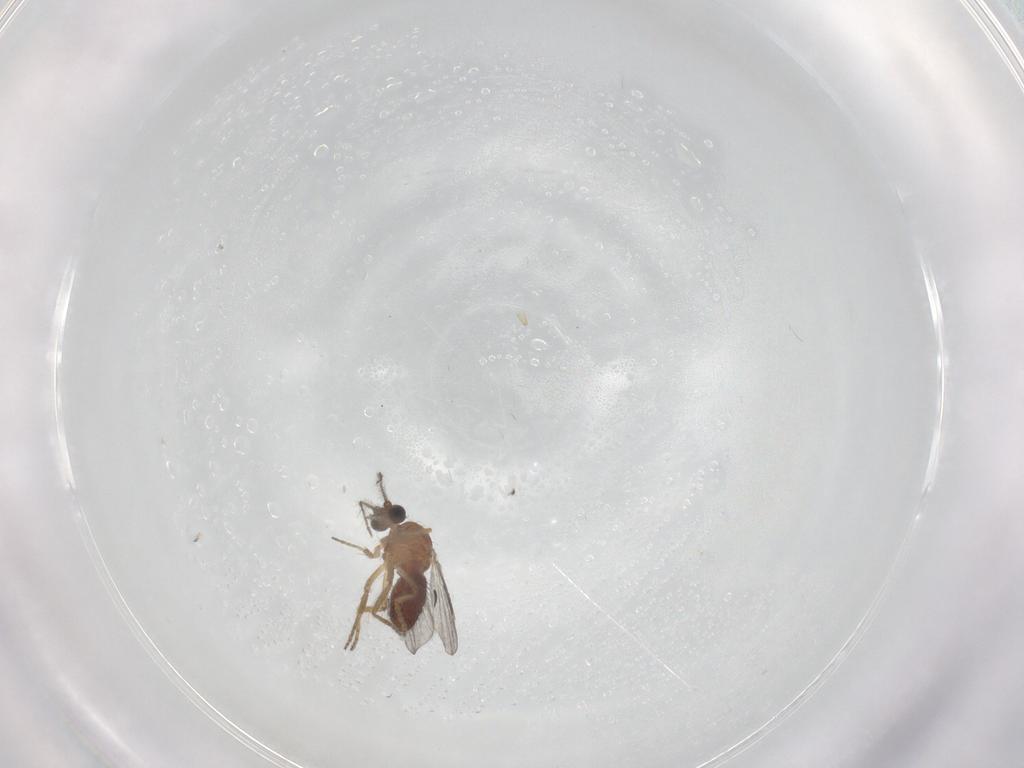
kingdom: Animalia
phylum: Arthropoda
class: Insecta
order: Diptera
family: Ceratopogonidae
